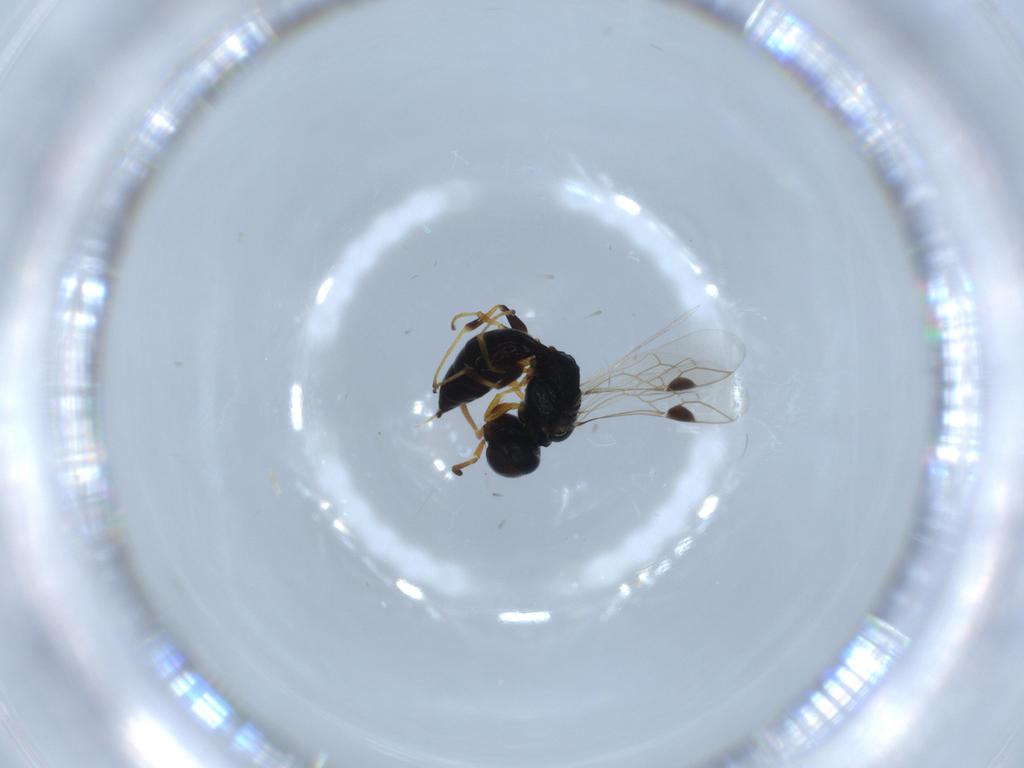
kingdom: Animalia
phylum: Arthropoda
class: Insecta
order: Hymenoptera
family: Pemphredonidae
